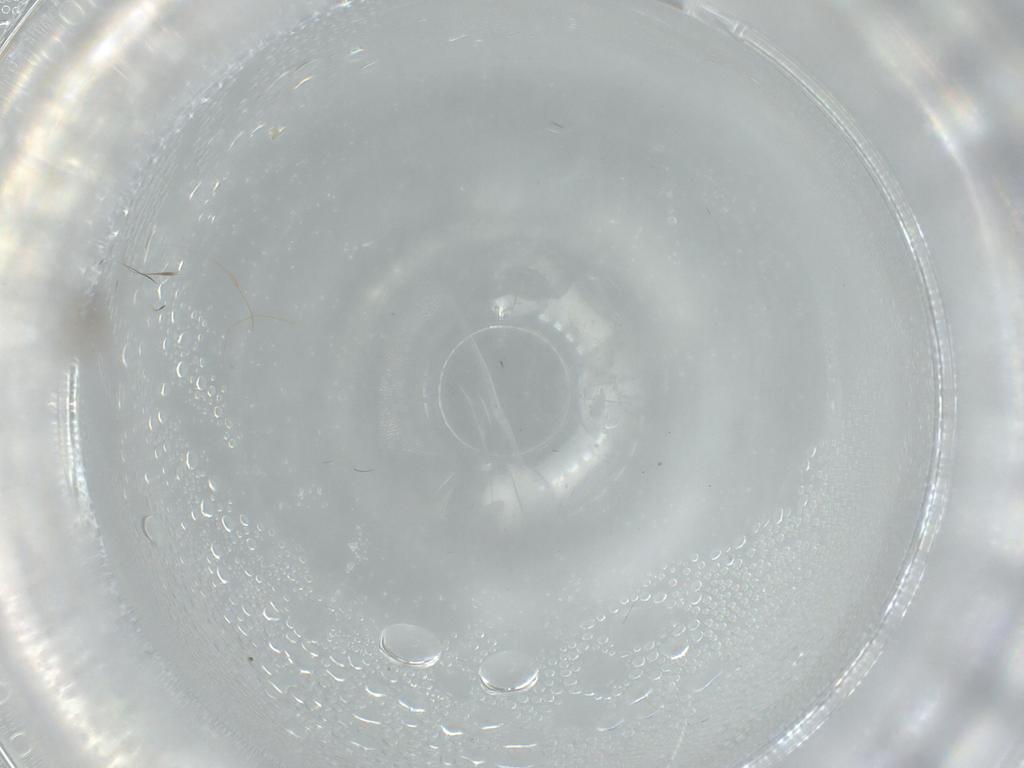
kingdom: Animalia
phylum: Arthropoda
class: Insecta
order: Diptera
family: Cecidomyiidae
